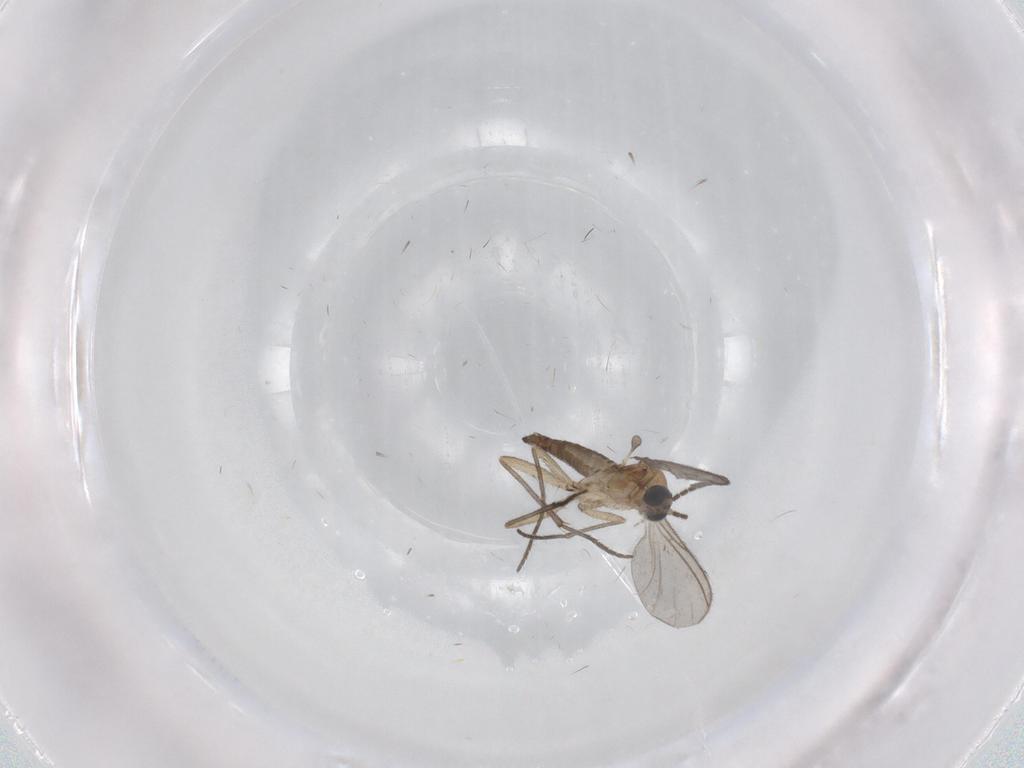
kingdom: Animalia
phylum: Arthropoda
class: Insecta
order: Diptera
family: Sciaridae
